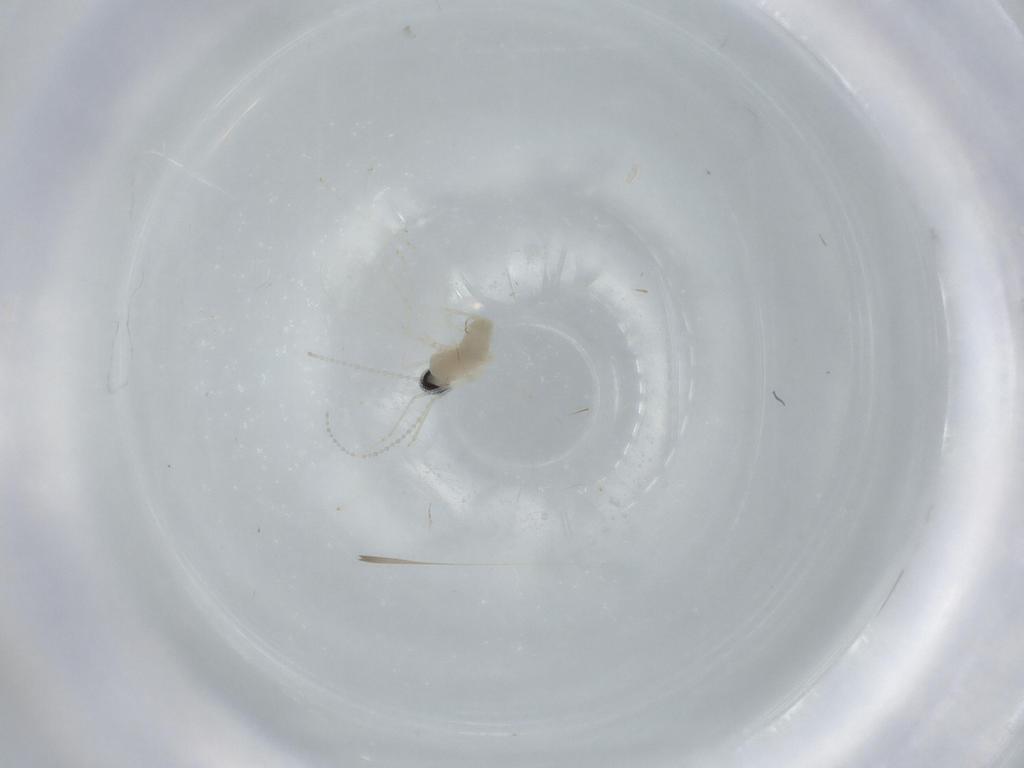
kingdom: Animalia
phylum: Arthropoda
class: Insecta
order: Diptera
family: Cecidomyiidae
